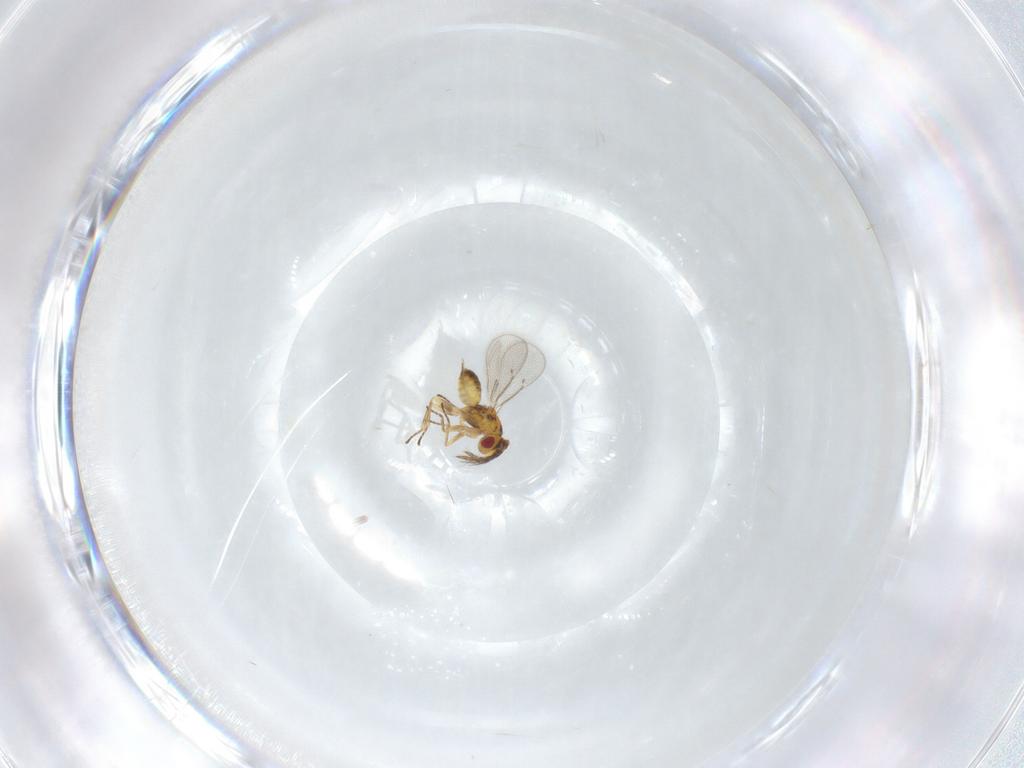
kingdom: Animalia
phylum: Arthropoda
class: Insecta
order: Hymenoptera
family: Eulophidae
